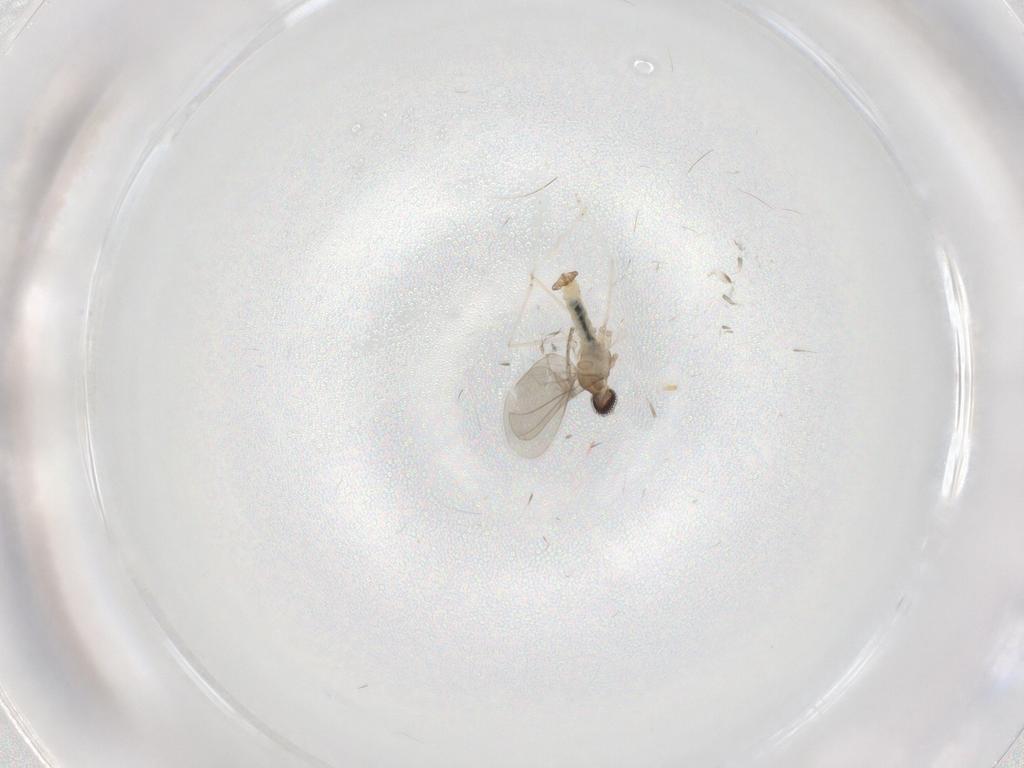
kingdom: Animalia
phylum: Arthropoda
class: Insecta
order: Diptera
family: Psychodidae
